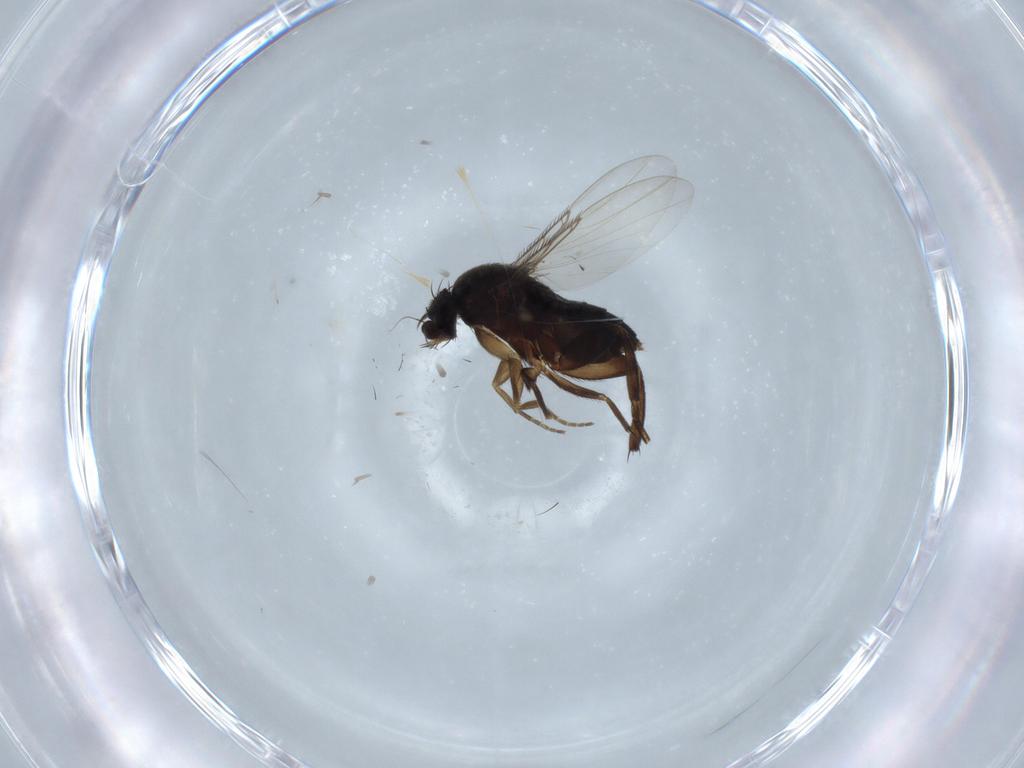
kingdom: Animalia
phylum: Arthropoda
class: Insecta
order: Diptera
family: Phoridae
